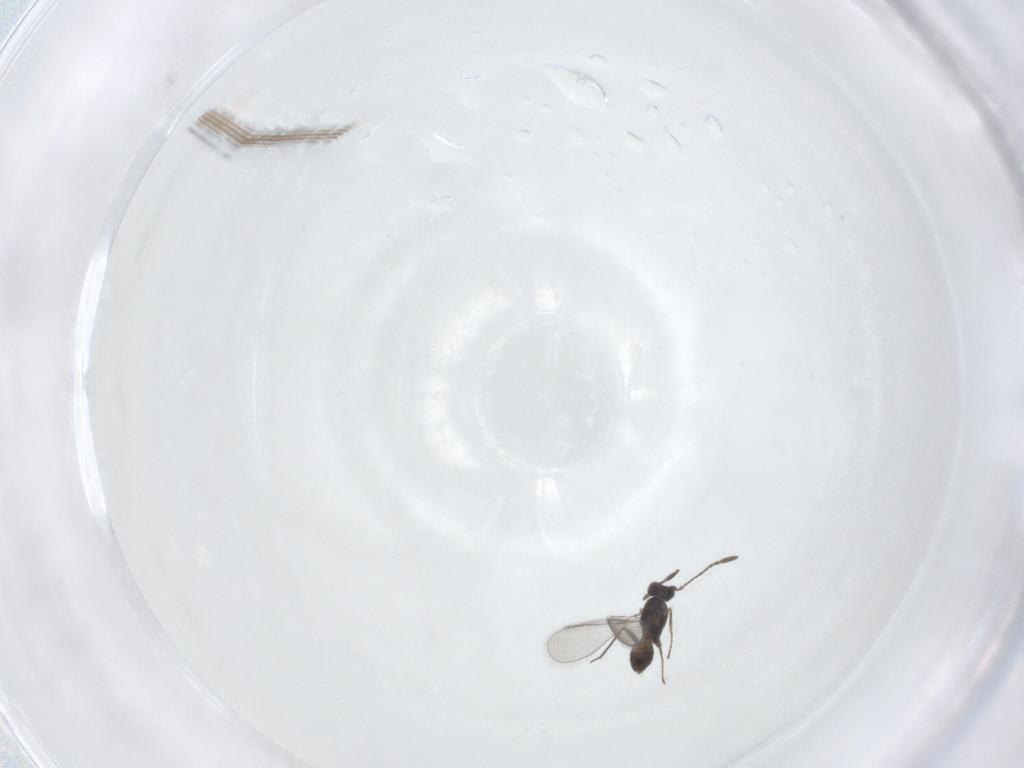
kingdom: Animalia
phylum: Arthropoda
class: Insecta
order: Hymenoptera
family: Mymaridae
